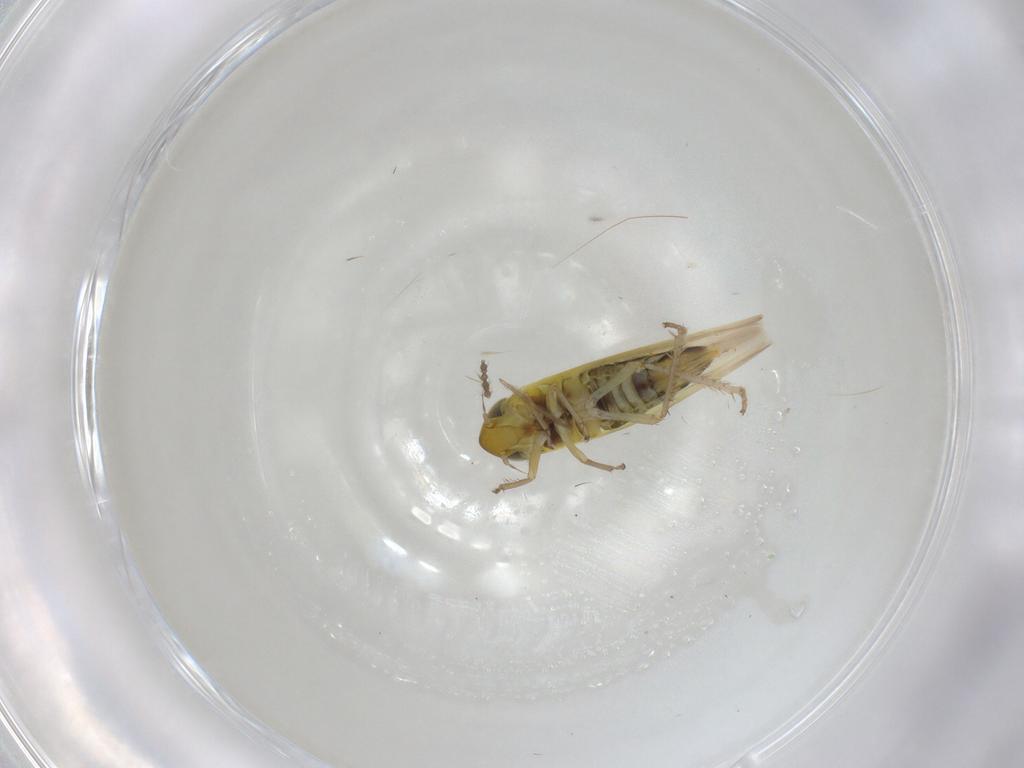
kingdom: Animalia
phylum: Arthropoda
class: Insecta
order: Hemiptera
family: Cicadellidae
